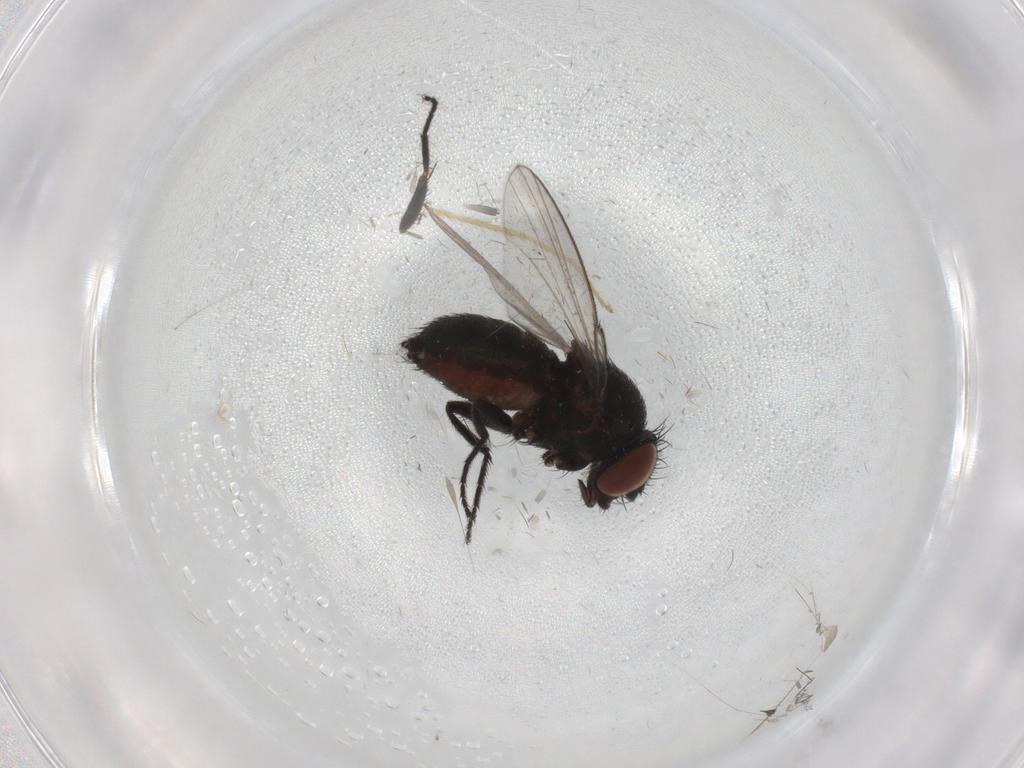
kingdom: Animalia
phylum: Arthropoda
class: Insecta
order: Diptera
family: Milichiidae
